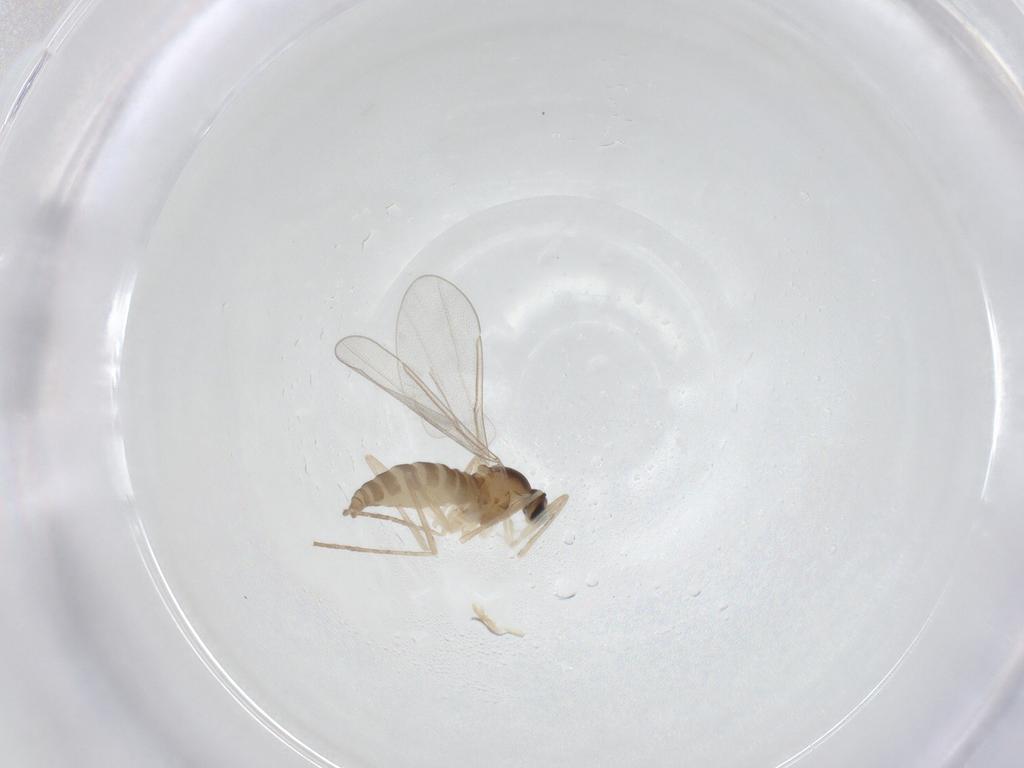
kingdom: Animalia
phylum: Arthropoda
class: Insecta
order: Diptera
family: Cecidomyiidae
